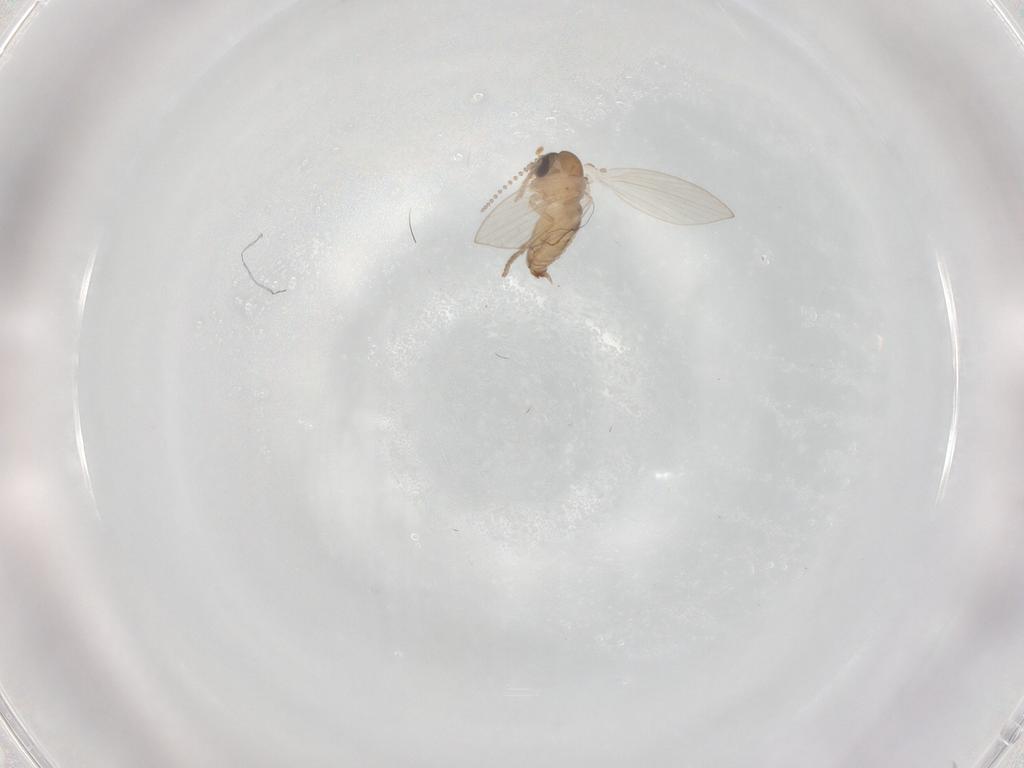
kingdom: Animalia
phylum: Arthropoda
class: Insecta
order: Diptera
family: Psychodidae
